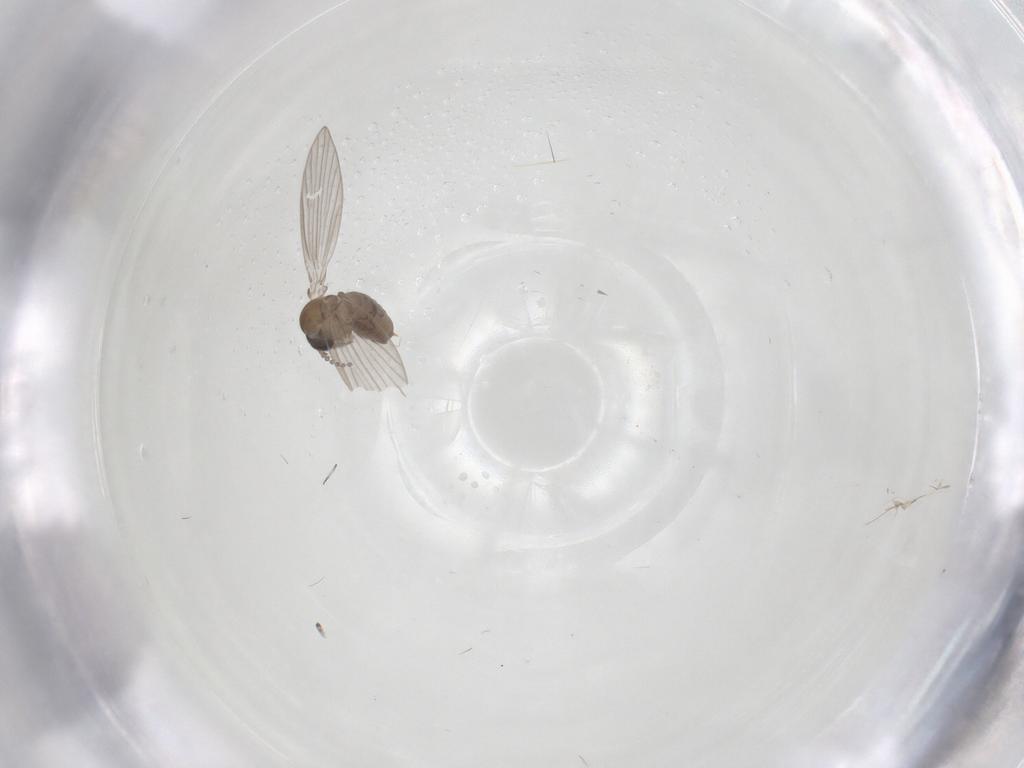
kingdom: Animalia
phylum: Arthropoda
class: Insecta
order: Diptera
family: Psychodidae
